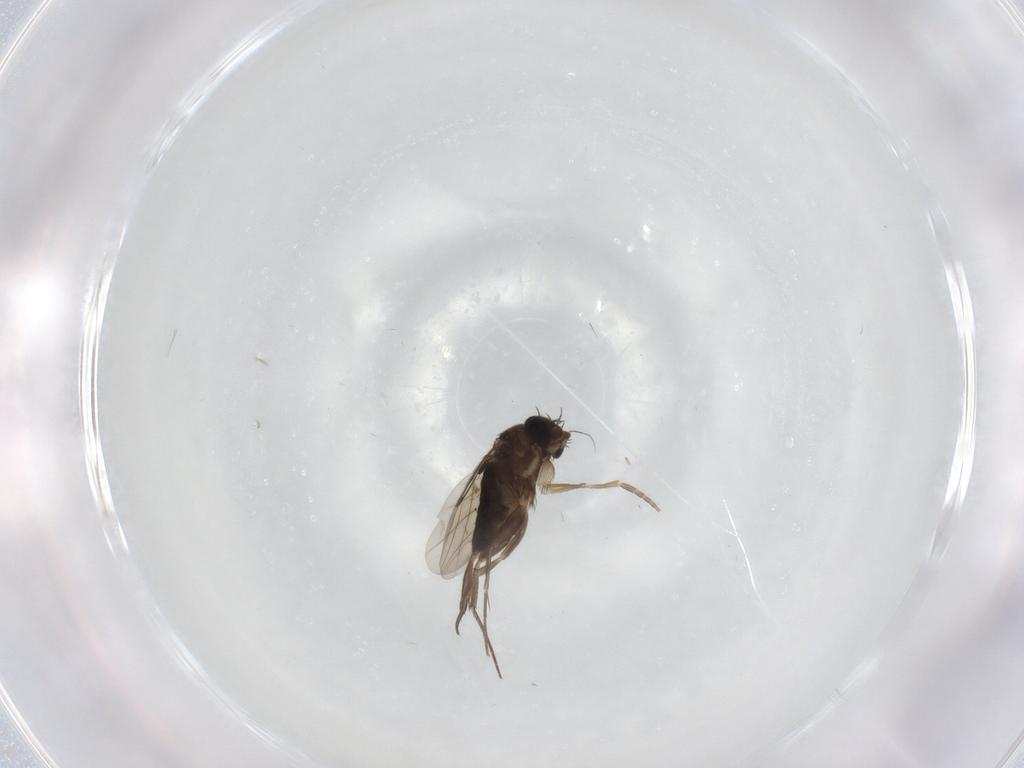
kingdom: Animalia
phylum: Arthropoda
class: Insecta
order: Diptera
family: Phoridae
